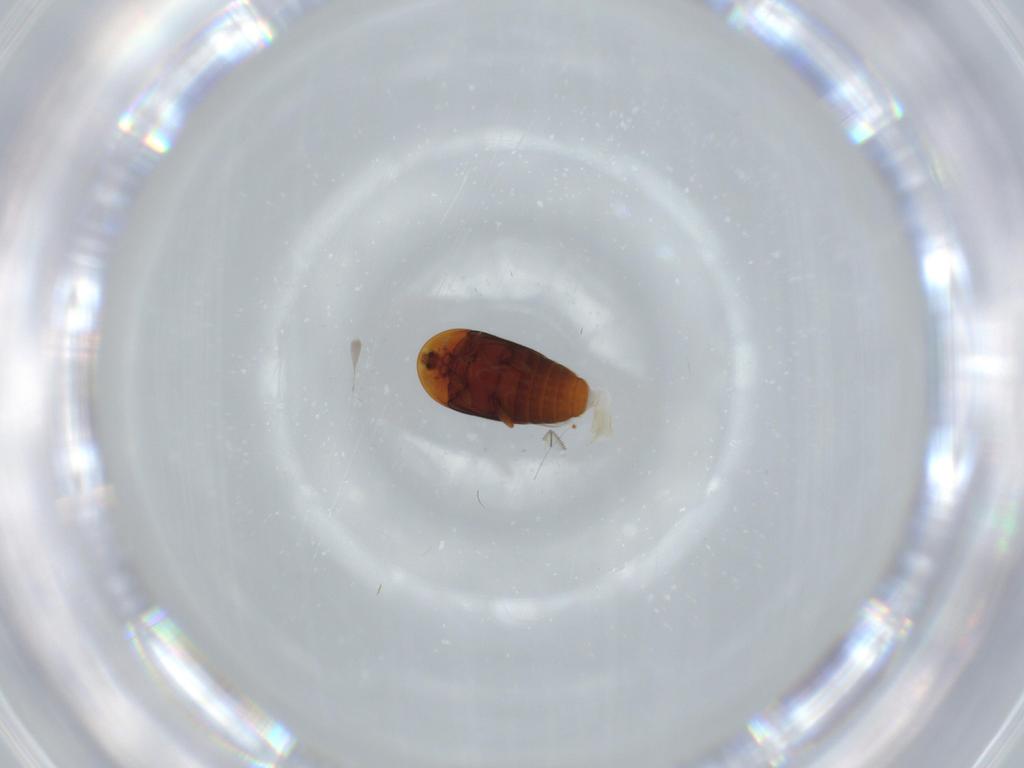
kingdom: Animalia
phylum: Arthropoda
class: Insecta
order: Coleoptera
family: Corylophidae
